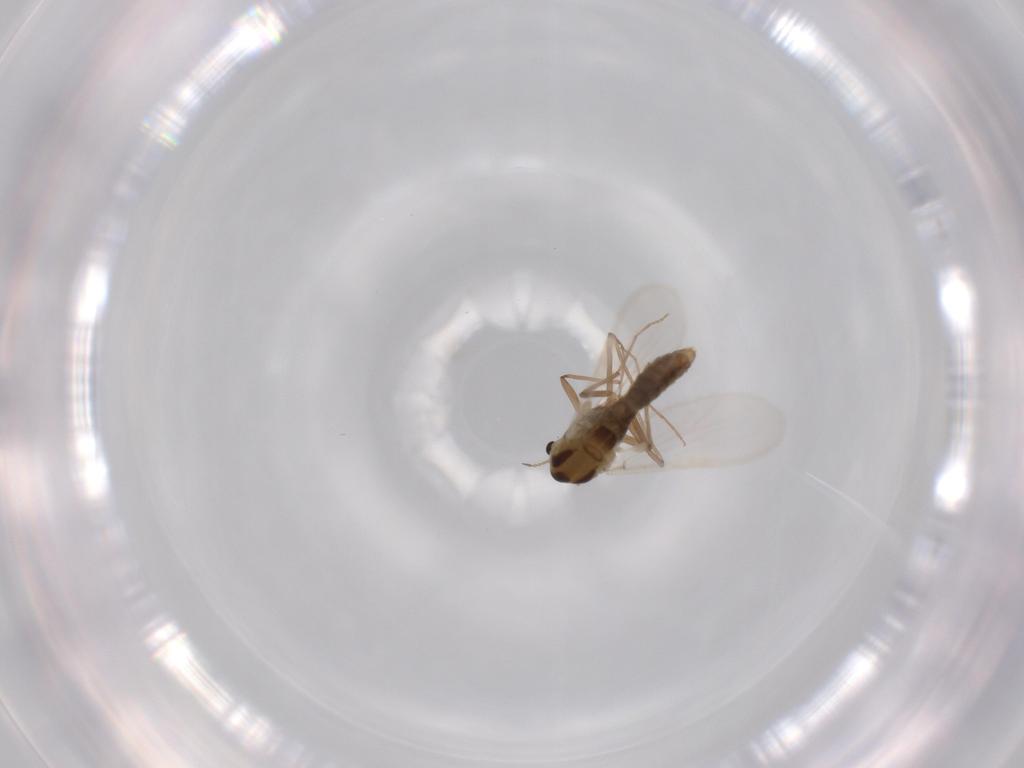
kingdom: Animalia
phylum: Arthropoda
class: Insecta
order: Diptera
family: Chironomidae
